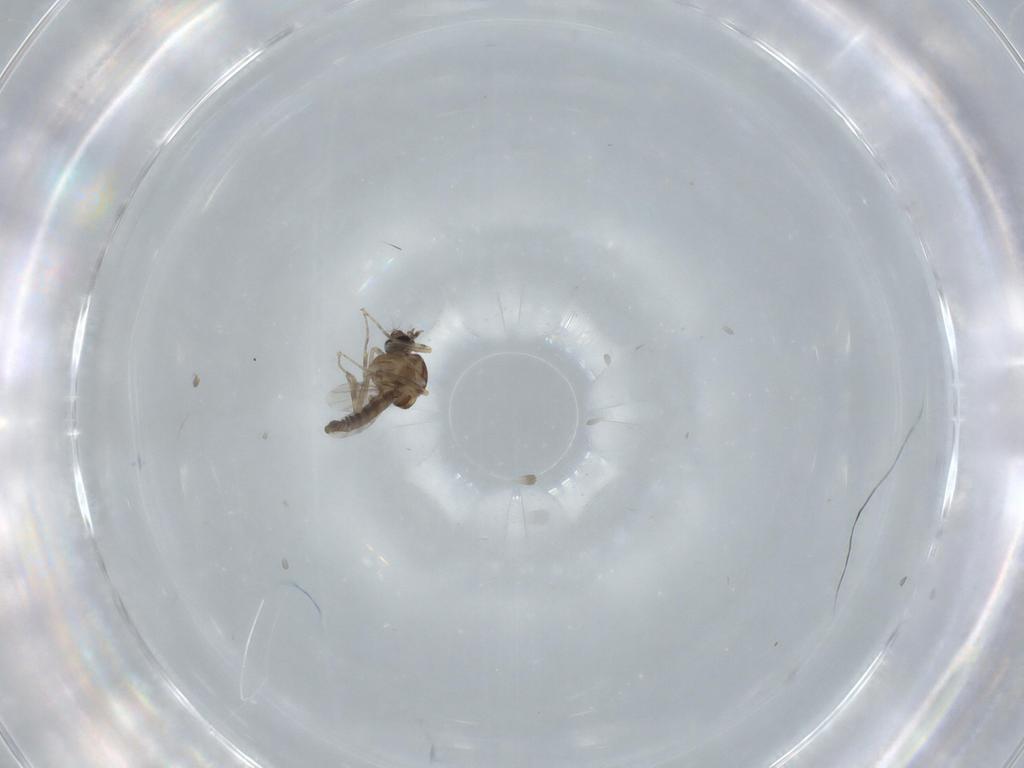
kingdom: Animalia
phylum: Arthropoda
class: Insecta
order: Diptera
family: Ceratopogonidae
